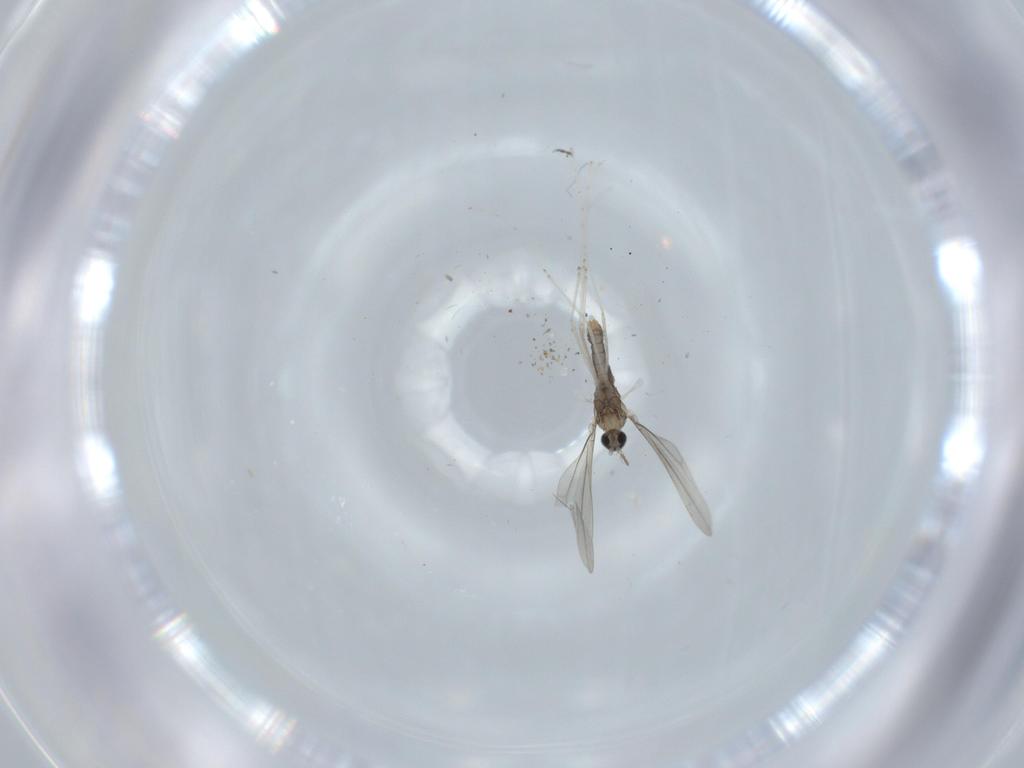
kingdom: Animalia
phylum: Arthropoda
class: Insecta
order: Diptera
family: Cecidomyiidae
